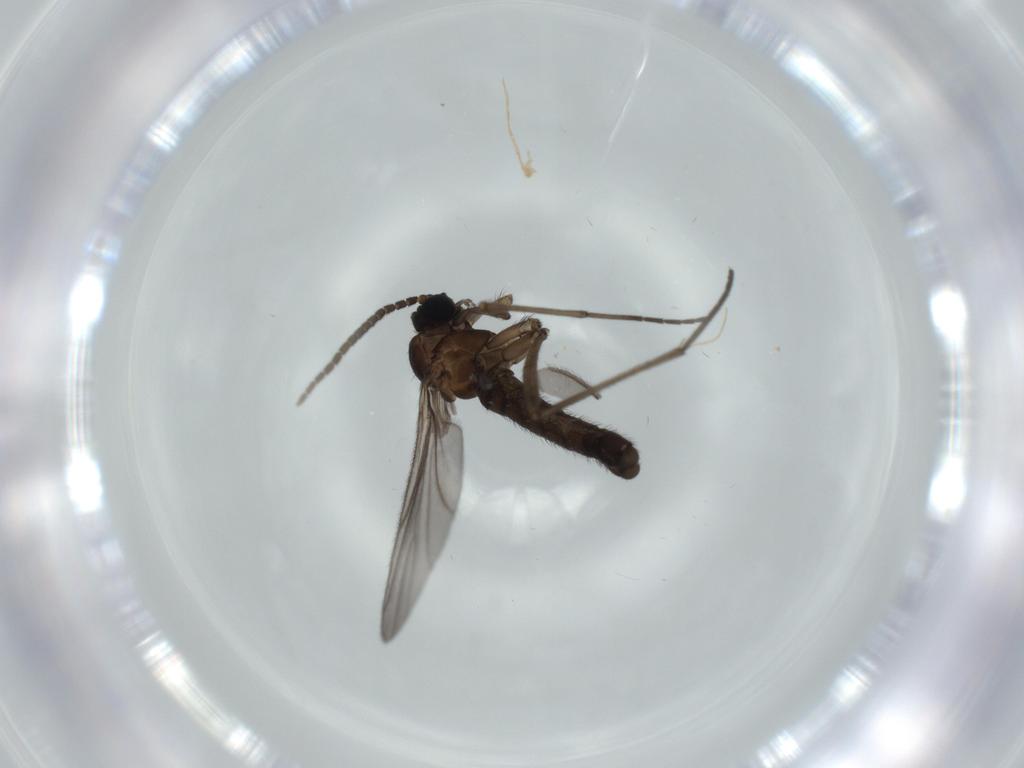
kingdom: Animalia
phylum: Arthropoda
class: Insecta
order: Diptera
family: Sciaridae
